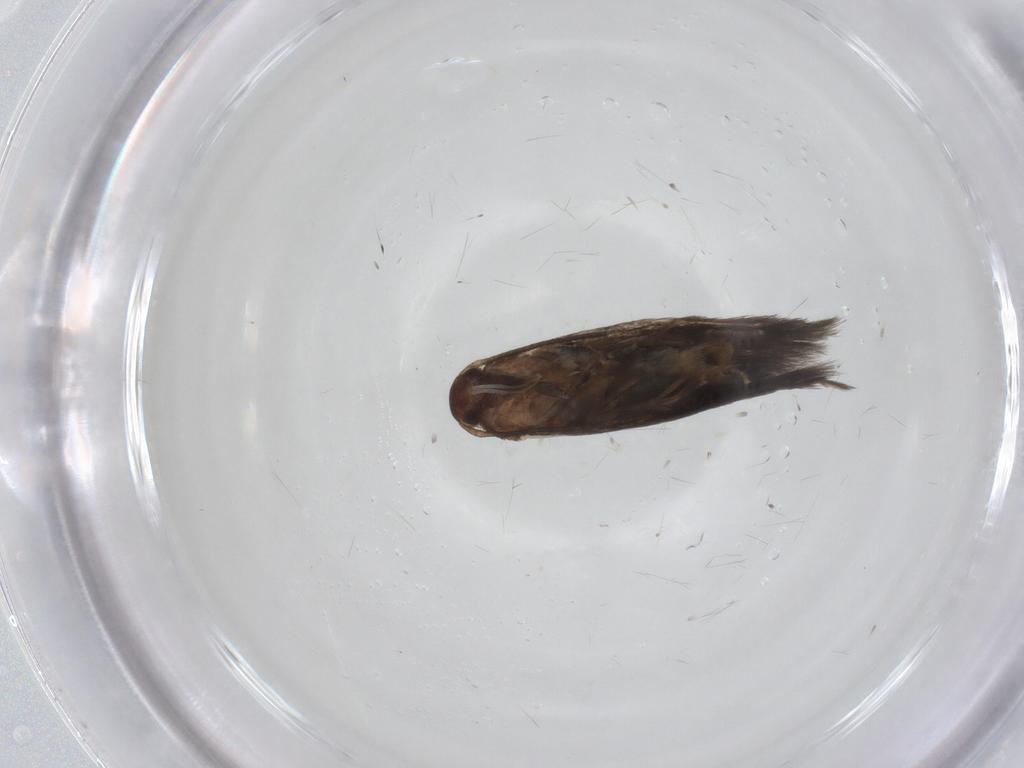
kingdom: Animalia
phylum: Arthropoda
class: Insecta
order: Lepidoptera
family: Elachistidae
